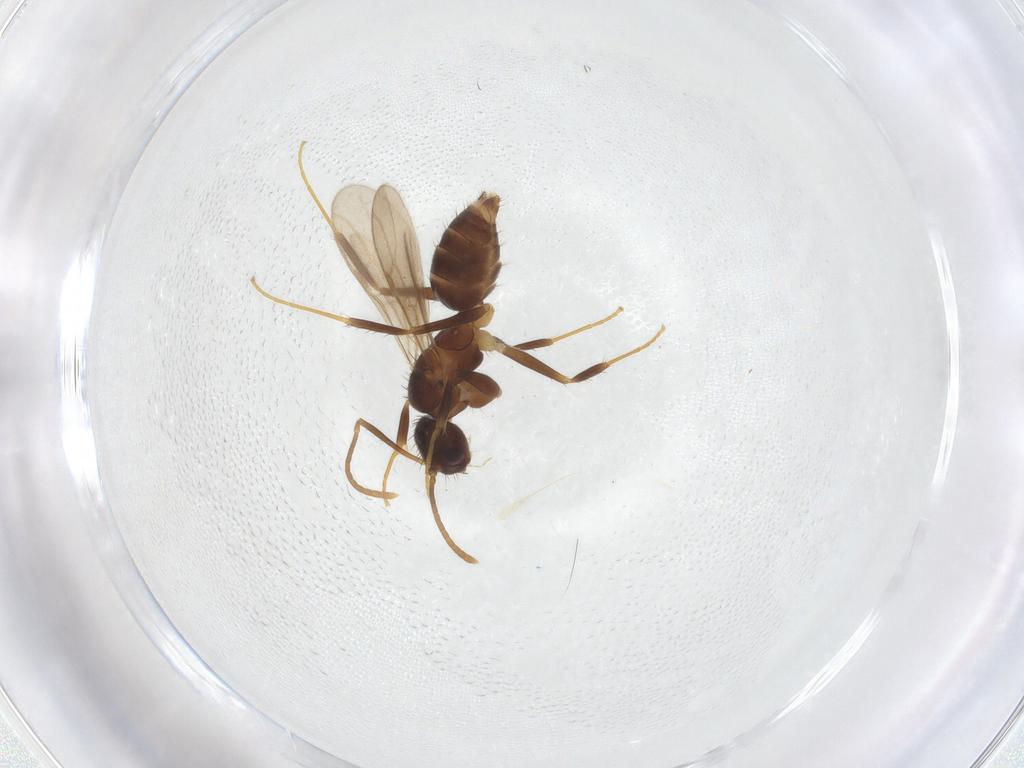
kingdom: Animalia
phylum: Arthropoda
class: Insecta
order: Hymenoptera
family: Formicidae
